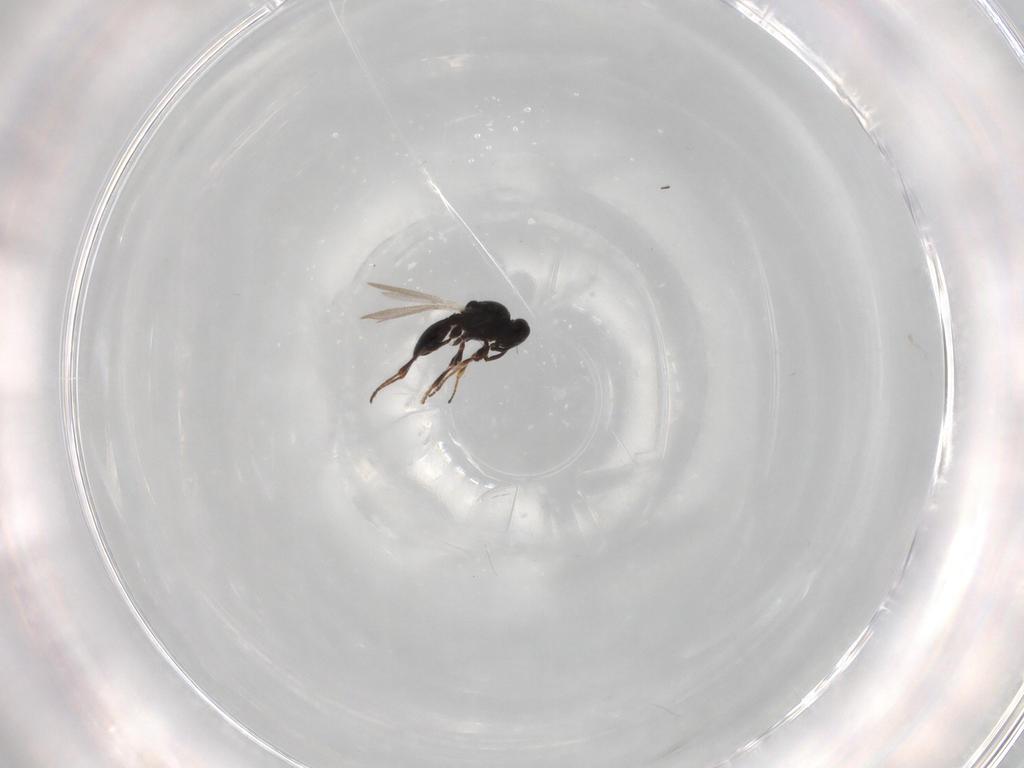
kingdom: Animalia
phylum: Arthropoda
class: Insecta
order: Hymenoptera
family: Platygastridae
